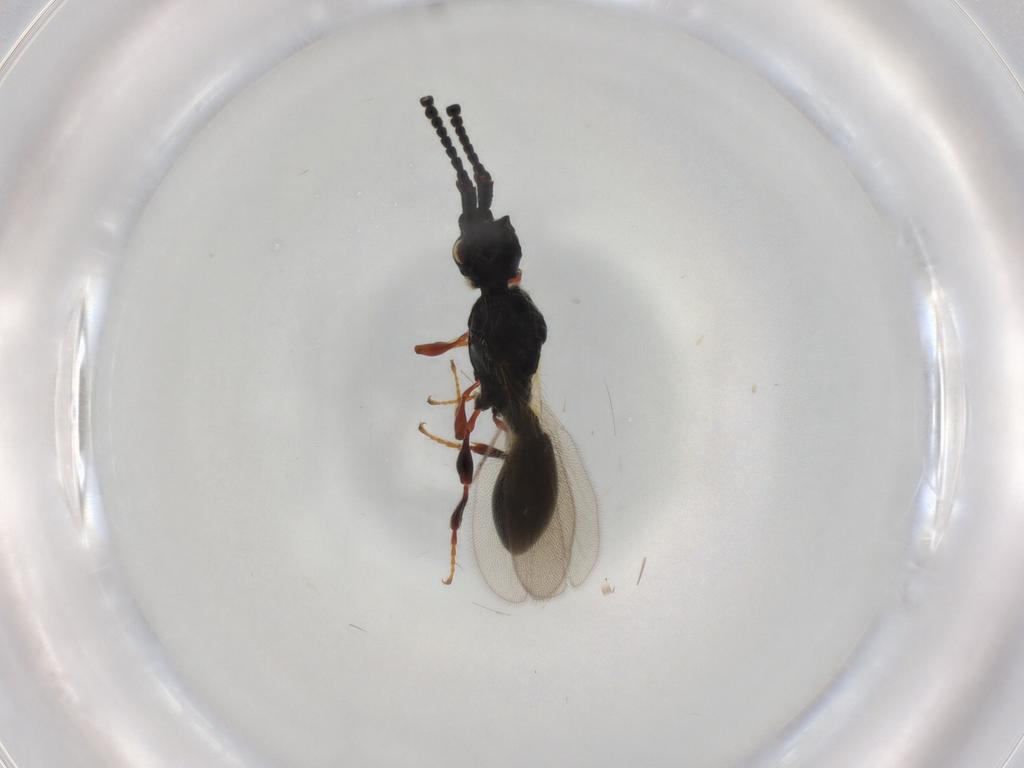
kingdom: Animalia
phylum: Arthropoda
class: Insecta
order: Hymenoptera
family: Diapriidae
